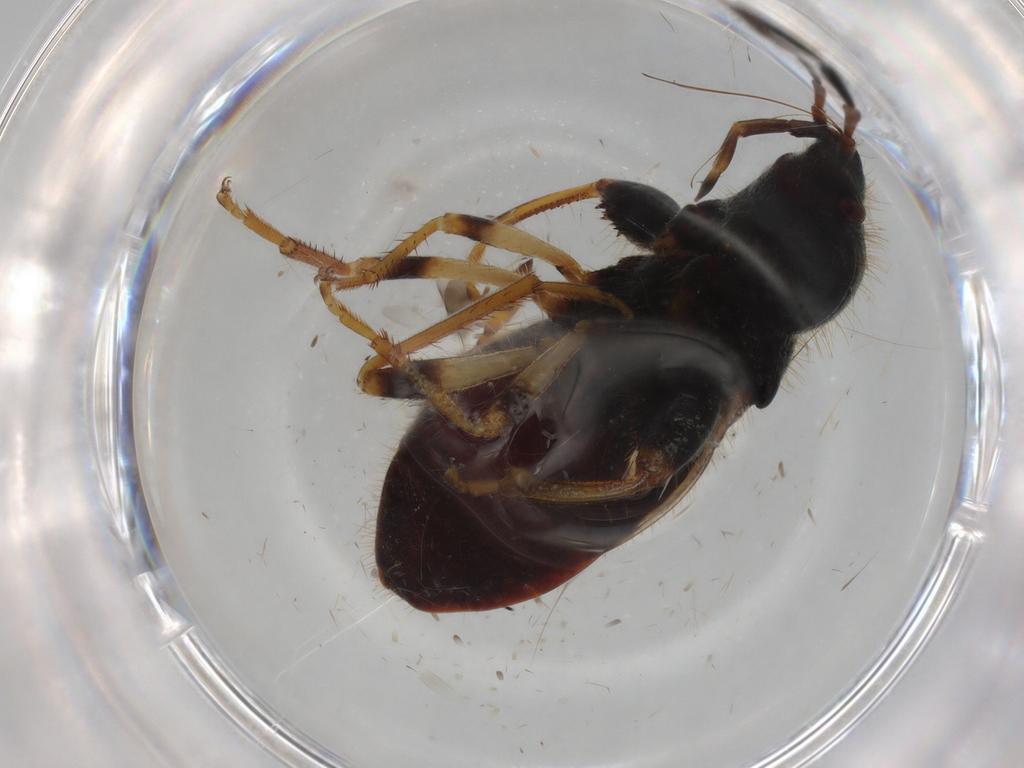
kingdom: Animalia
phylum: Arthropoda
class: Insecta
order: Hemiptera
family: Rhyparochromidae
